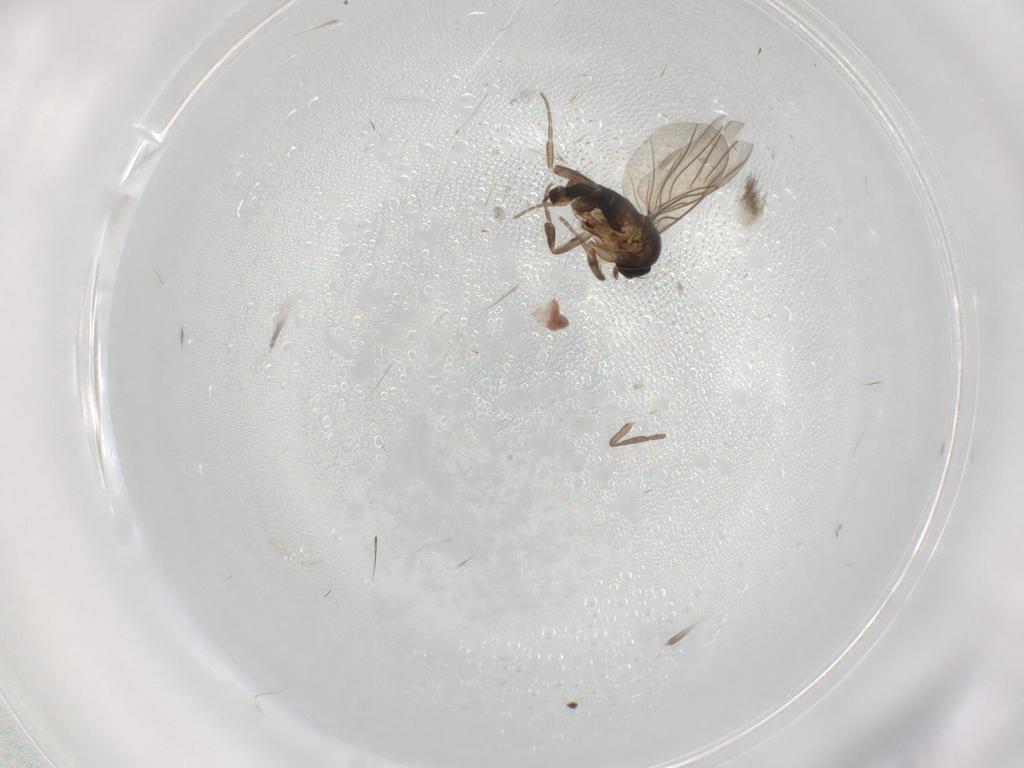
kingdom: Animalia
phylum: Arthropoda
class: Insecta
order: Diptera
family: Phoridae
